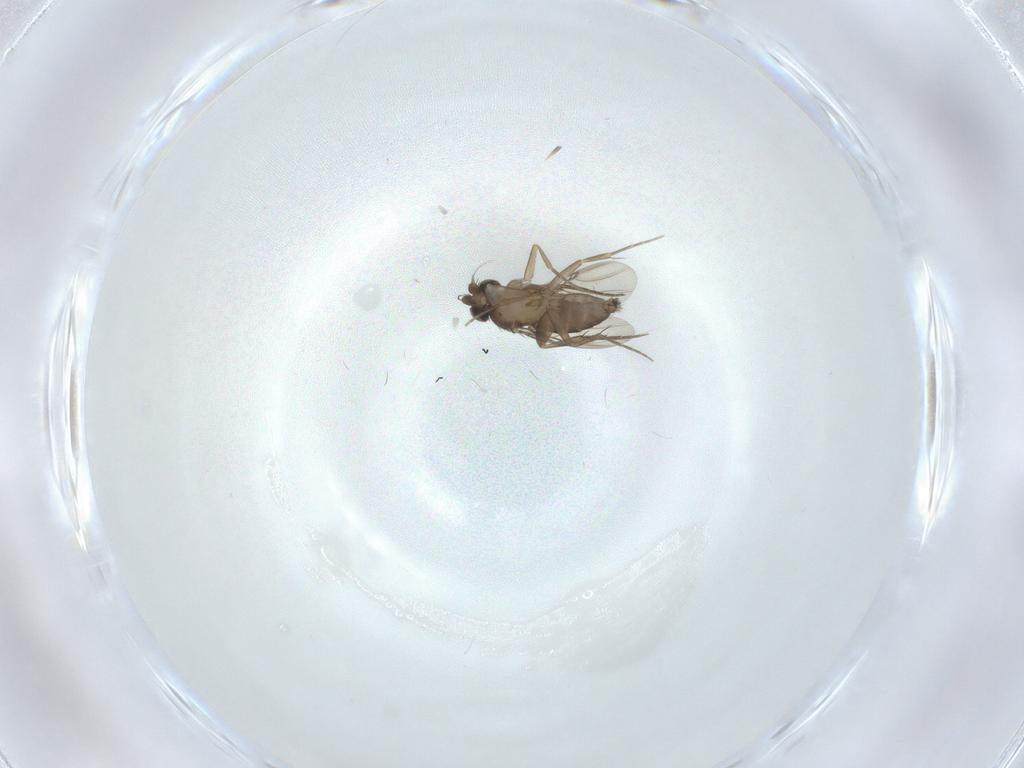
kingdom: Animalia
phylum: Arthropoda
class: Insecta
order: Diptera
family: Phoridae
